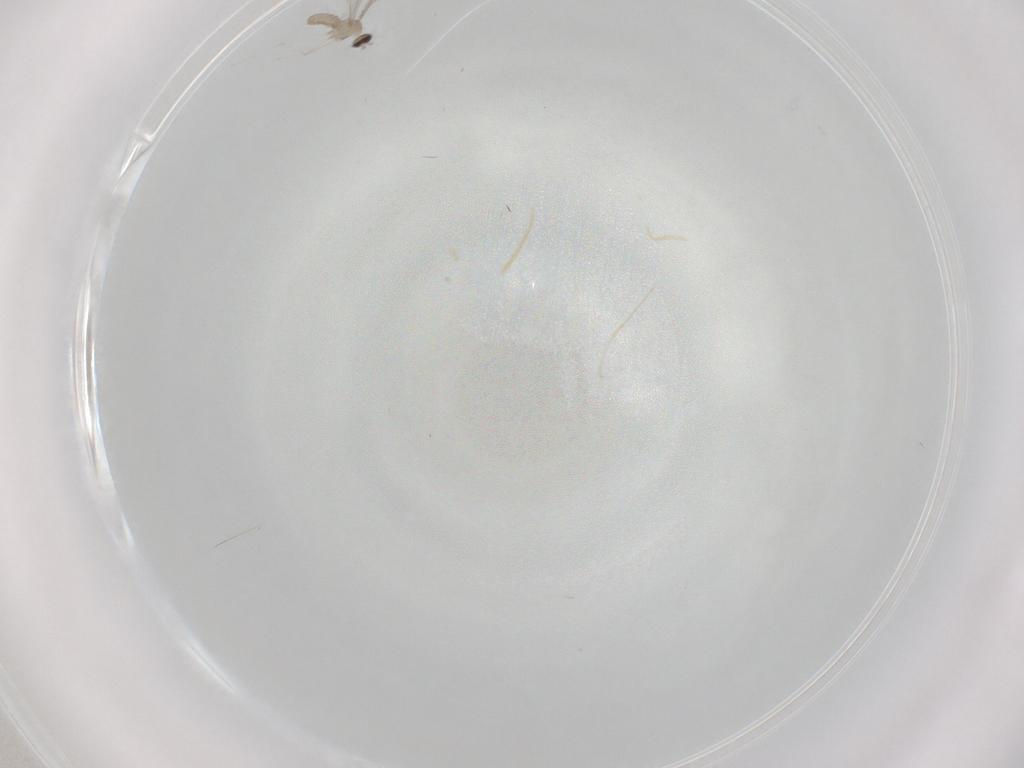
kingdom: Animalia
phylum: Arthropoda
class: Insecta
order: Diptera
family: Cecidomyiidae
